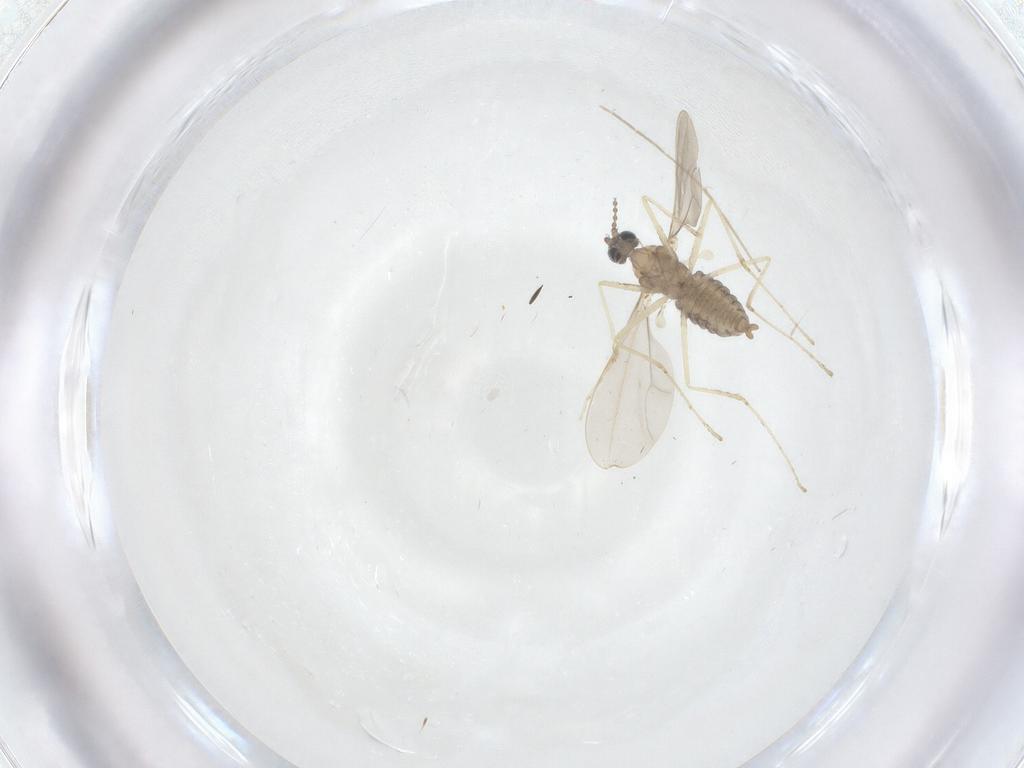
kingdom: Animalia
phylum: Arthropoda
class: Insecta
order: Diptera
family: Cecidomyiidae
